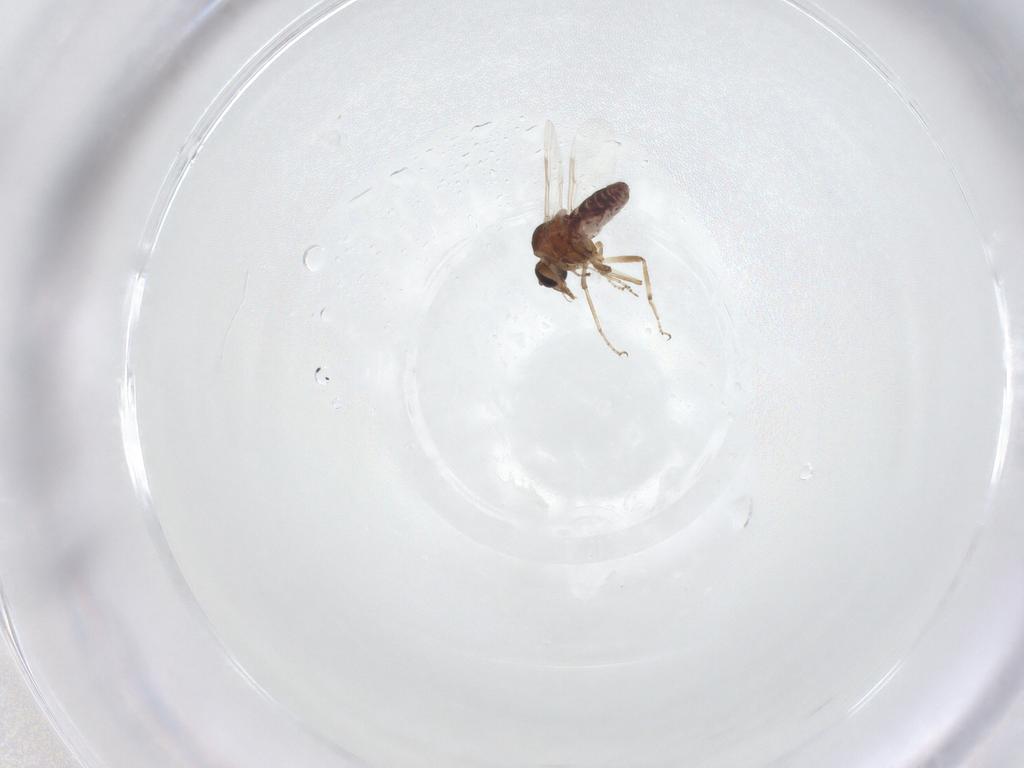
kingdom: Animalia
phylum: Arthropoda
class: Insecta
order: Diptera
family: Ceratopogonidae
